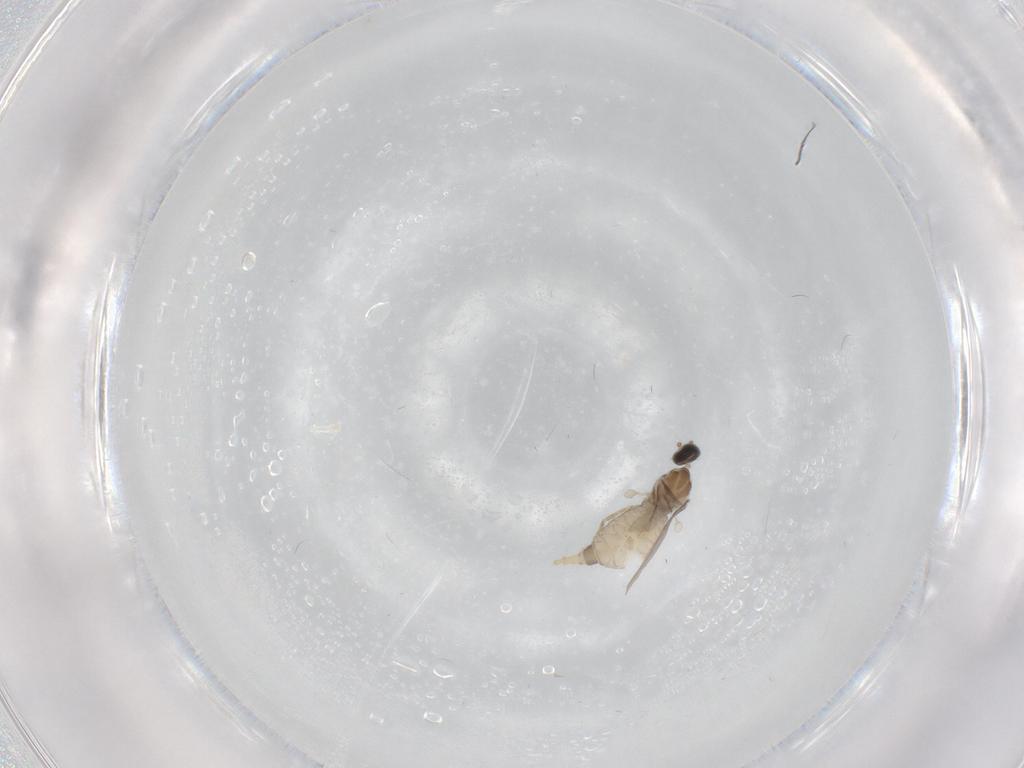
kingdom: Animalia
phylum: Arthropoda
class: Insecta
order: Diptera
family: Cecidomyiidae
